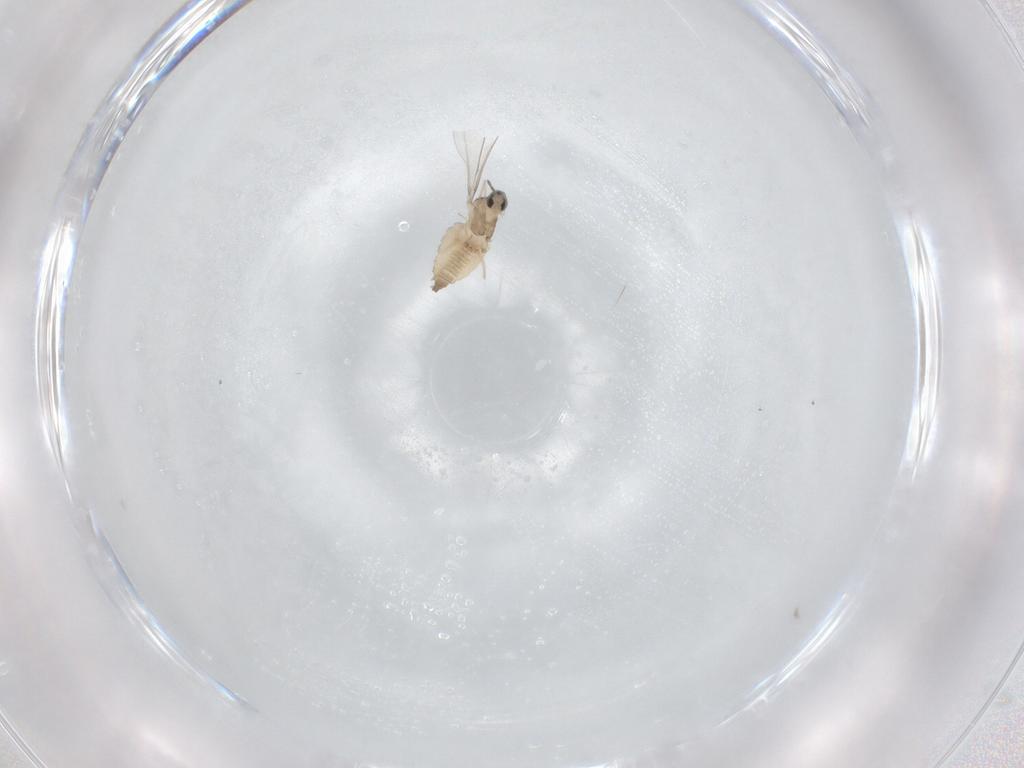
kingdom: Animalia
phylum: Arthropoda
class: Insecta
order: Diptera
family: Cecidomyiidae
